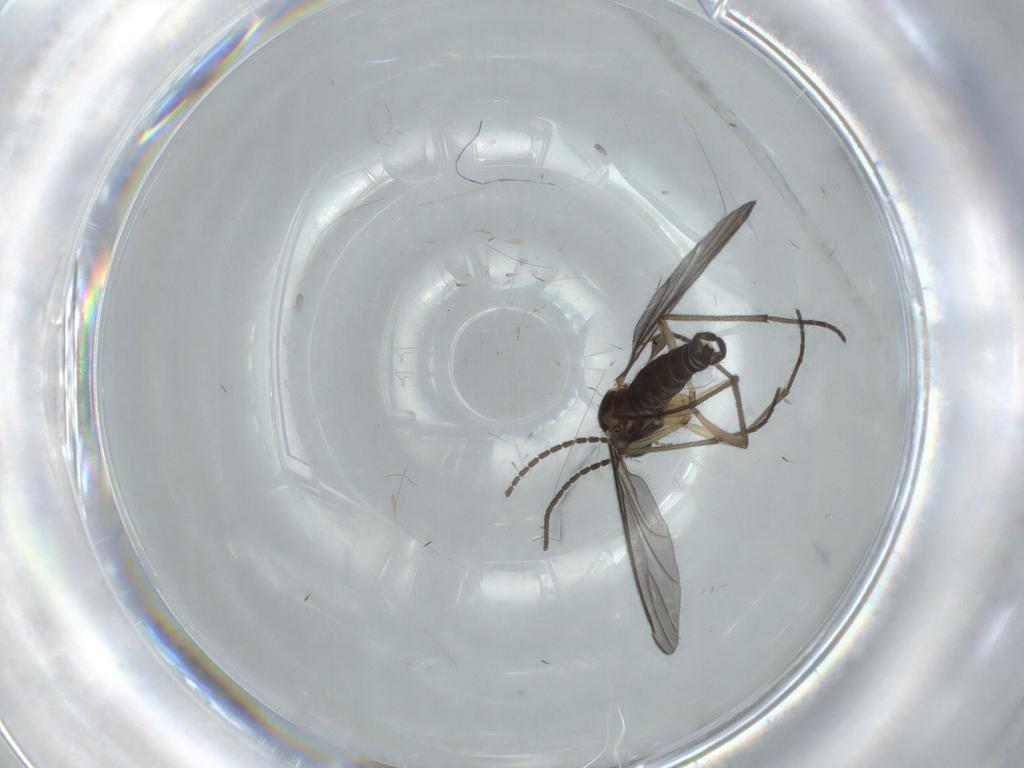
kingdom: Animalia
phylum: Arthropoda
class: Insecta
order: Diptera
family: Sciaridae
